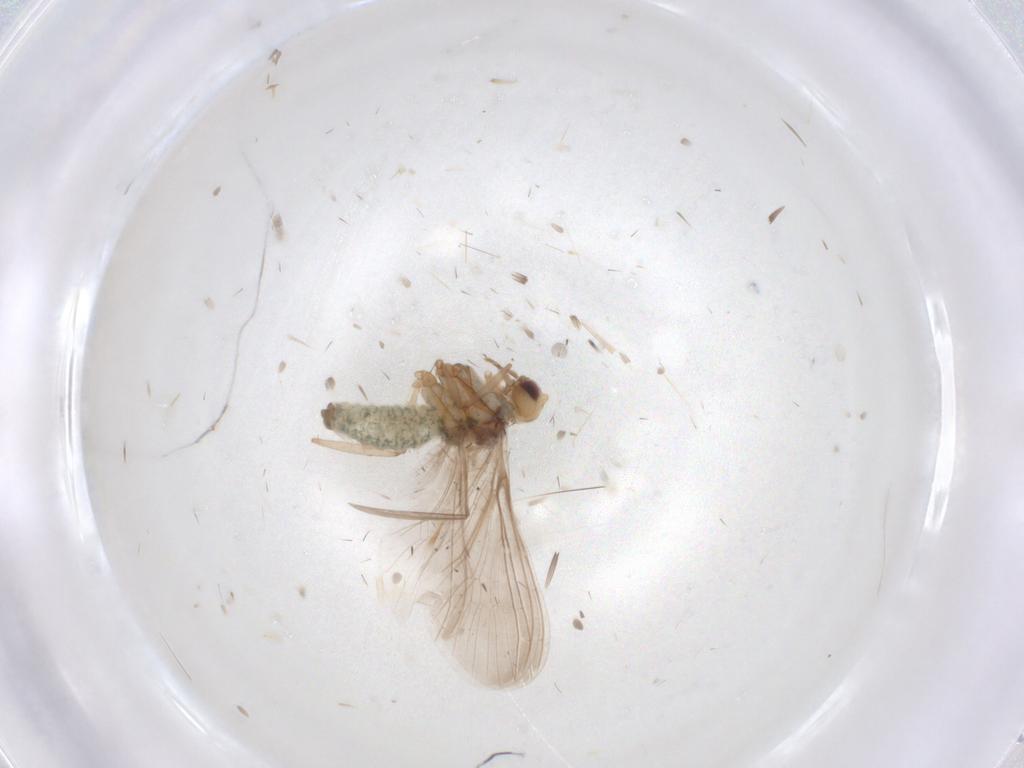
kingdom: Animalia
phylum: Arthropoda
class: Insecta
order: Neuroptera
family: Coniopterygidae
